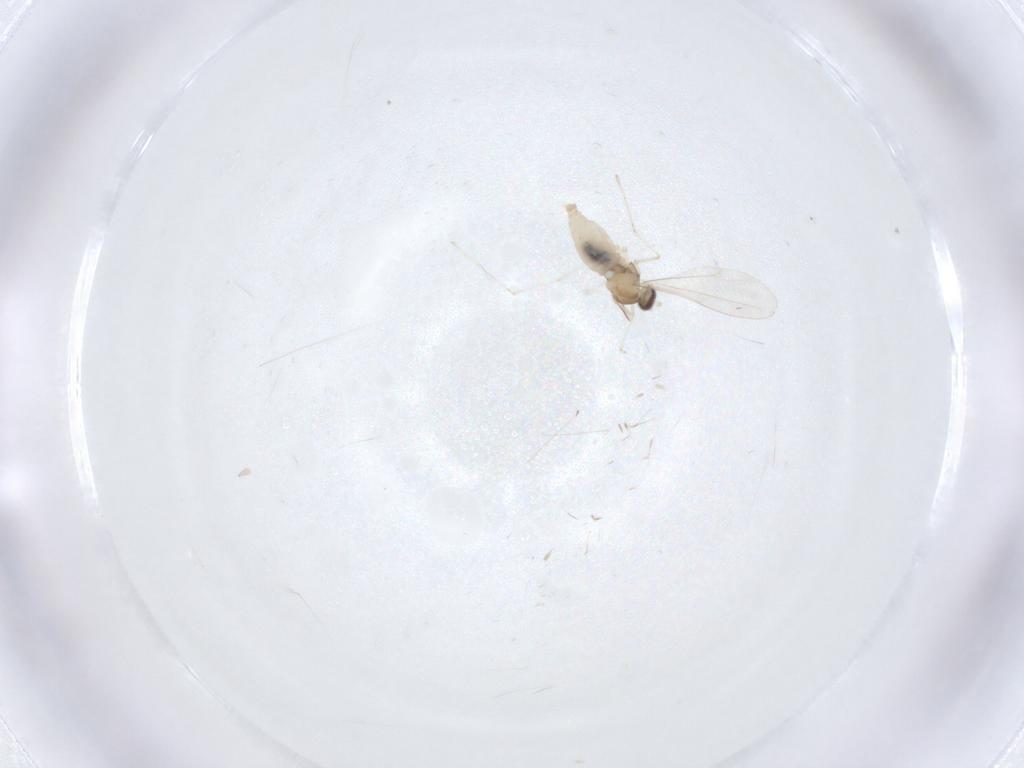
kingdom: Animalia
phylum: Arthropoda
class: Insecta
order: Diptera
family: Cecidomyiidae
